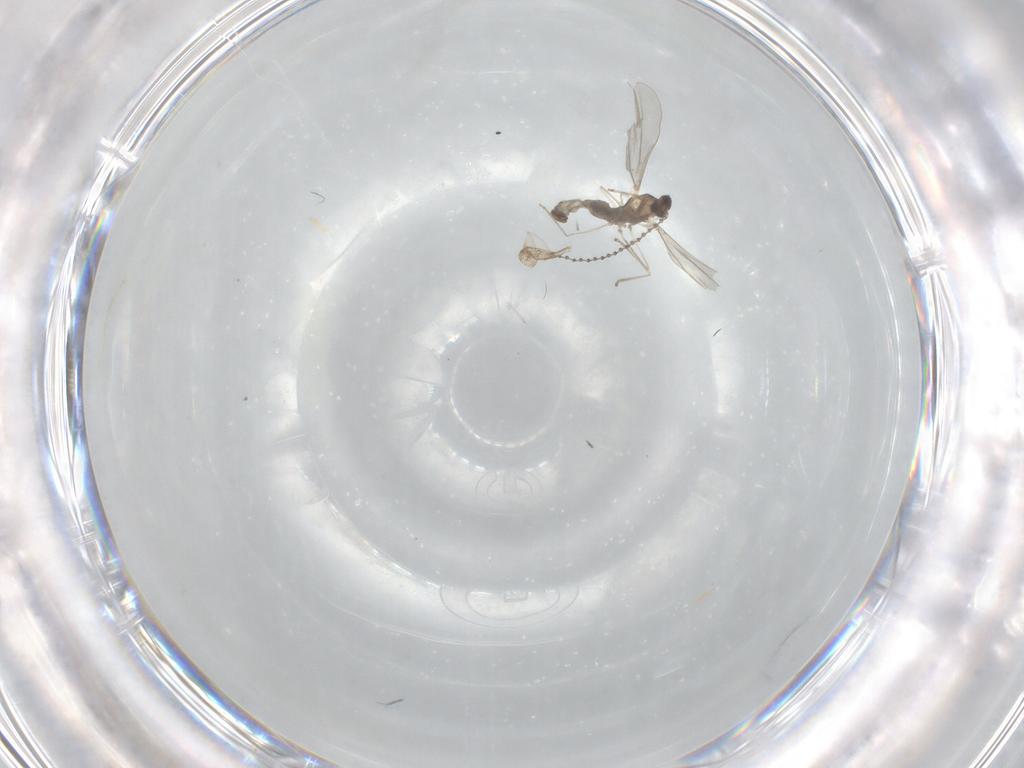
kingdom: Animalia
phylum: Arthropoda
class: Insecta
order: Diptera
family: Cecidomyiidae
